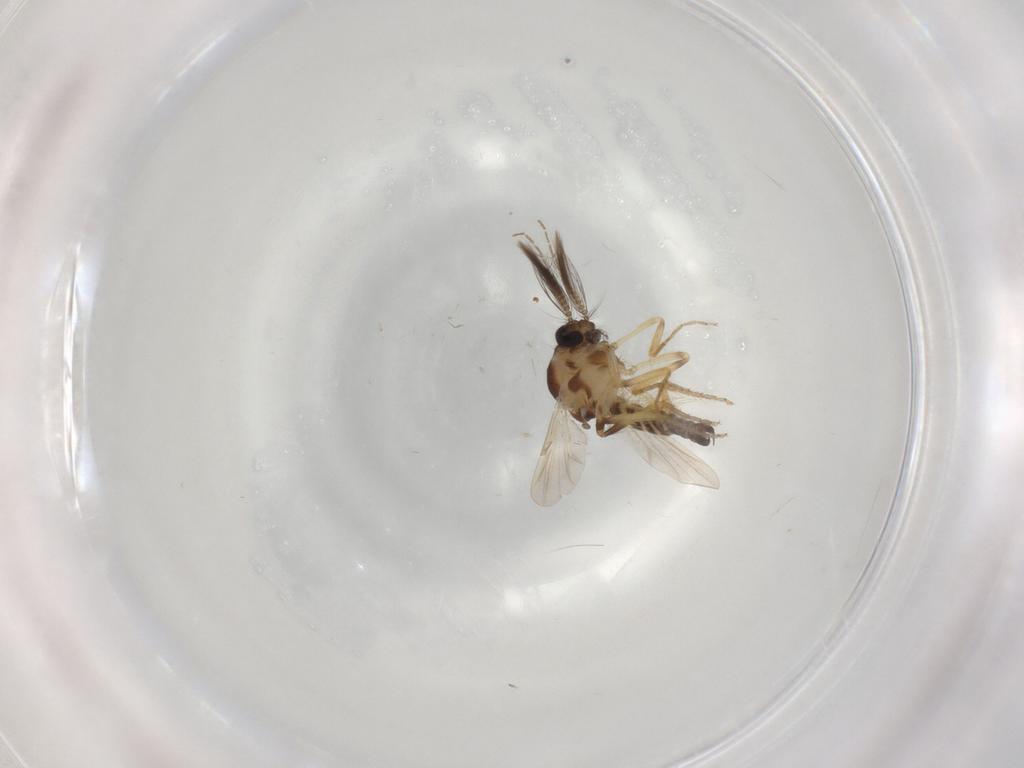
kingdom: Animalia
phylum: Arthropoda
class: Insecta
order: Diptera
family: Ceratopogonidae
